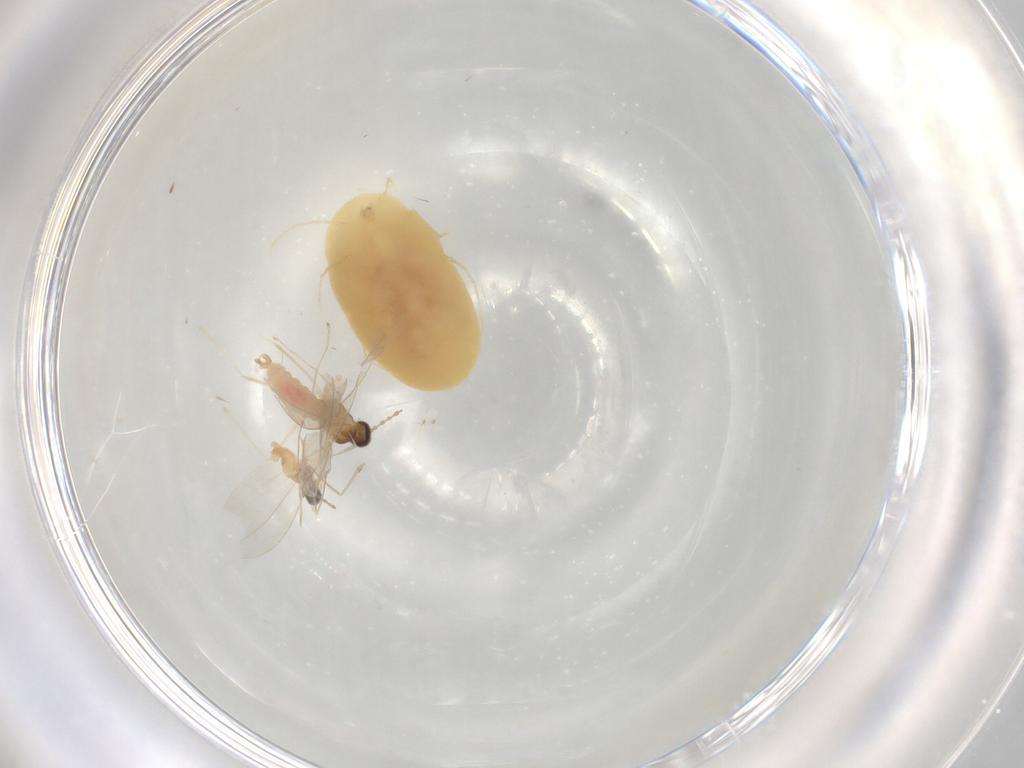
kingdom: Animalia
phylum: Arthropoda
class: Arachnida
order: Trombidiformes
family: Erythraeidae
